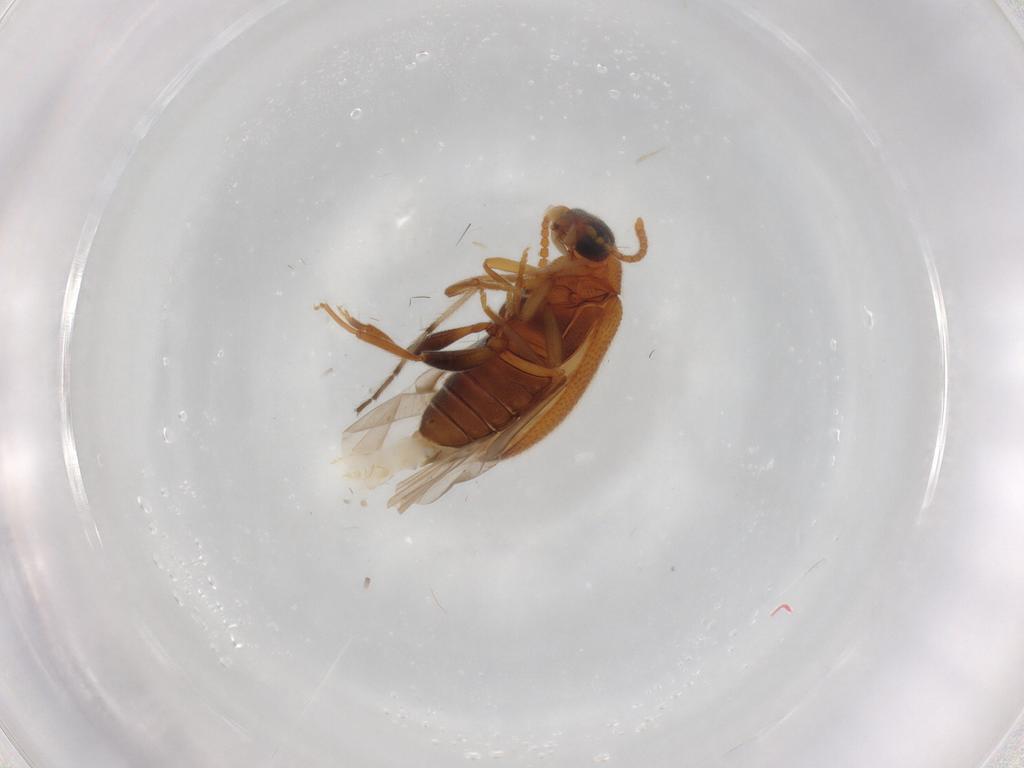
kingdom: Animalia
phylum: Arthropoda
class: Insecta
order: Coleoptera
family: Aderidae
